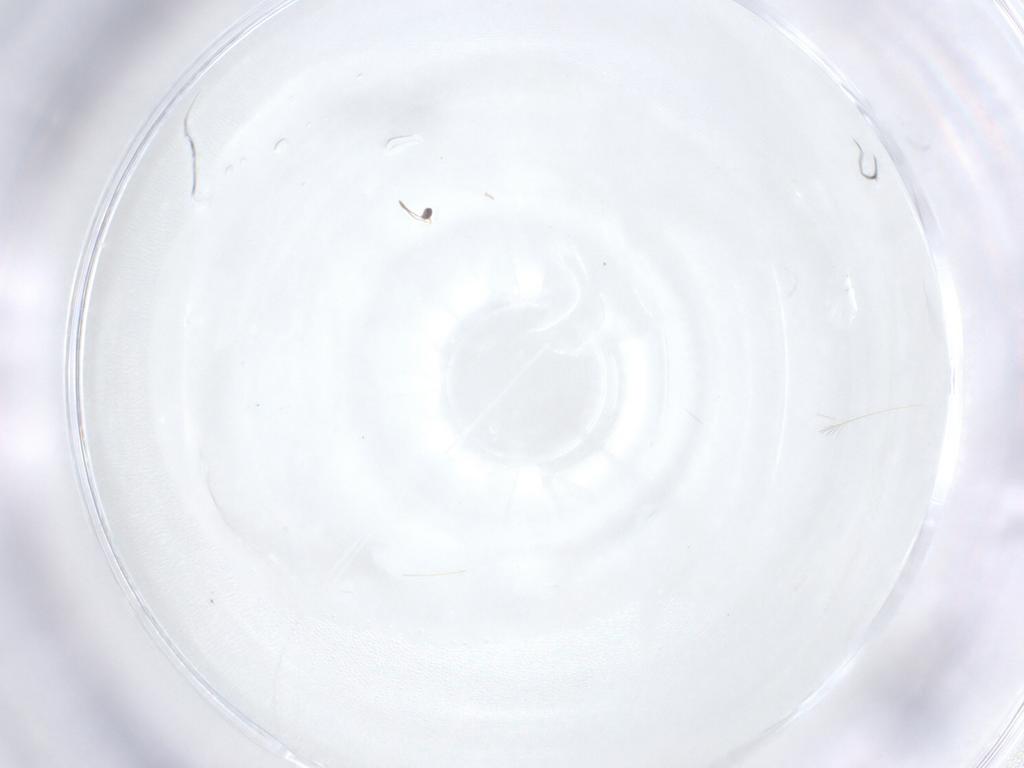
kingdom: Animalia
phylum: Arthropoda
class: Insecta
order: Diptera
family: Cecidomyiidae
